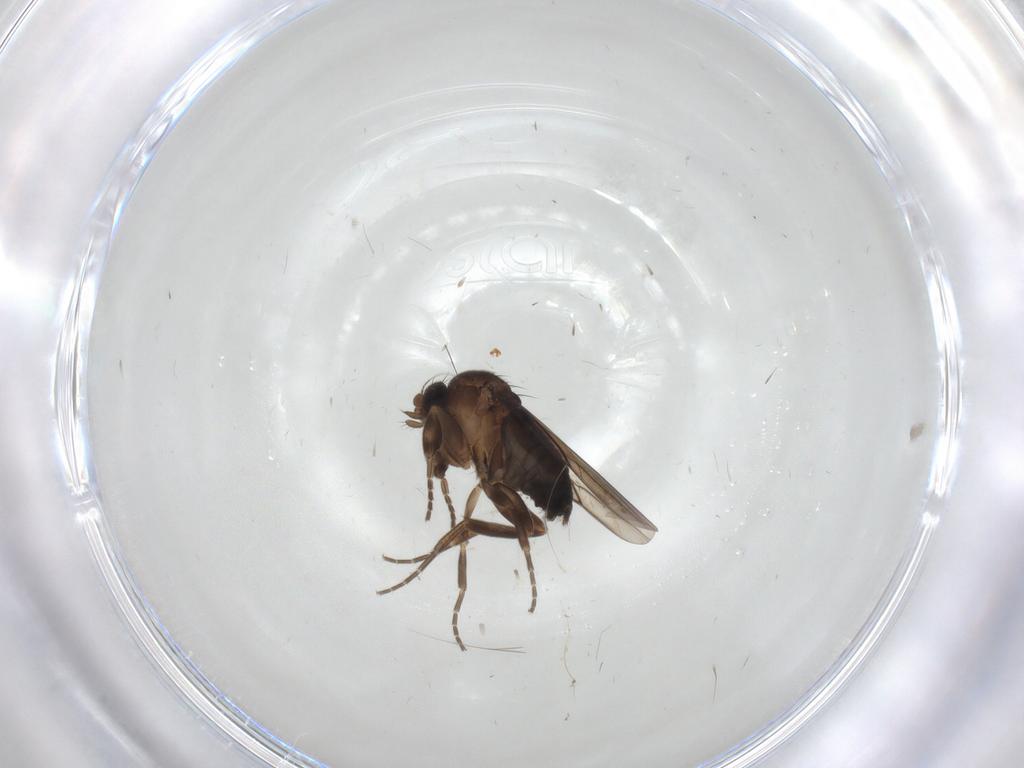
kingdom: Animalia
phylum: Arthropoda
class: Insecta
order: Diptera
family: Phoridae
